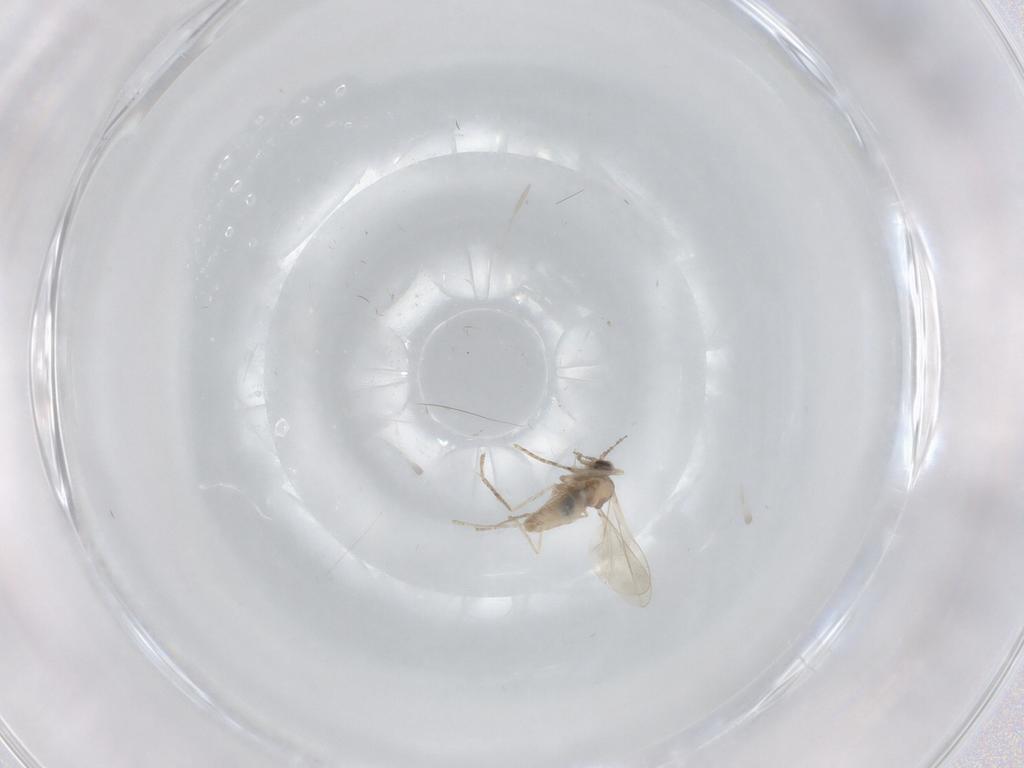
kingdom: Animalia
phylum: Arthropoda
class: Insecta
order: Diptera
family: Cecidomyiidae
